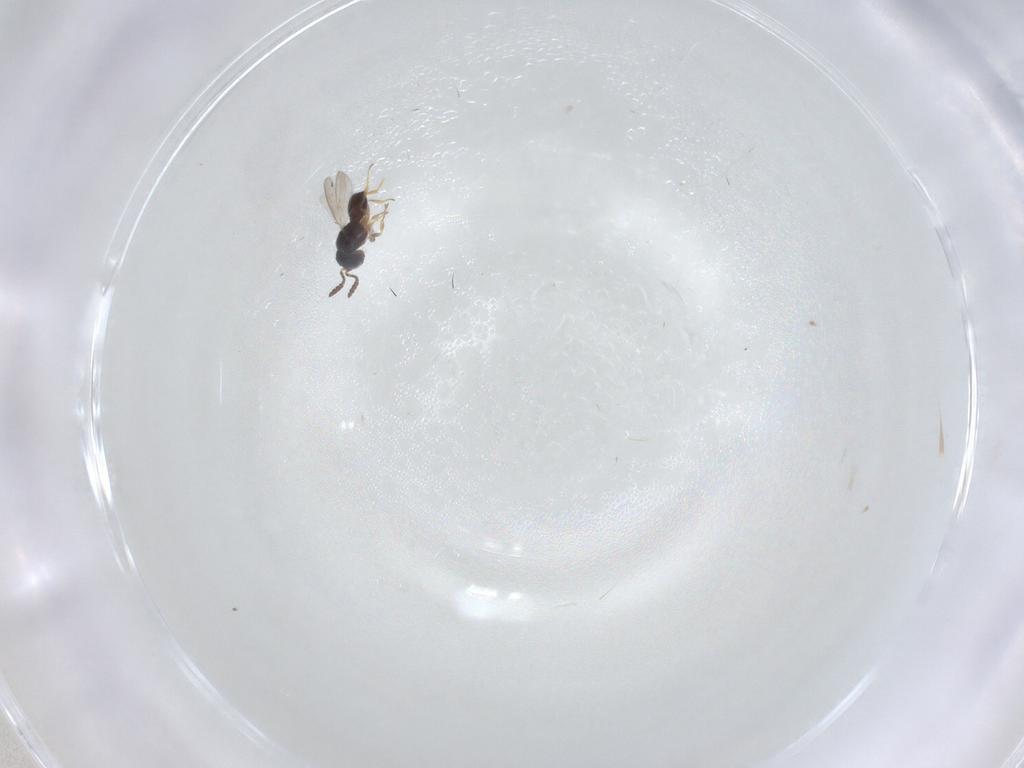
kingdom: Animalia
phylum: Arthropoda
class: Insecta
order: Hymenoptera
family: Scelionidae
